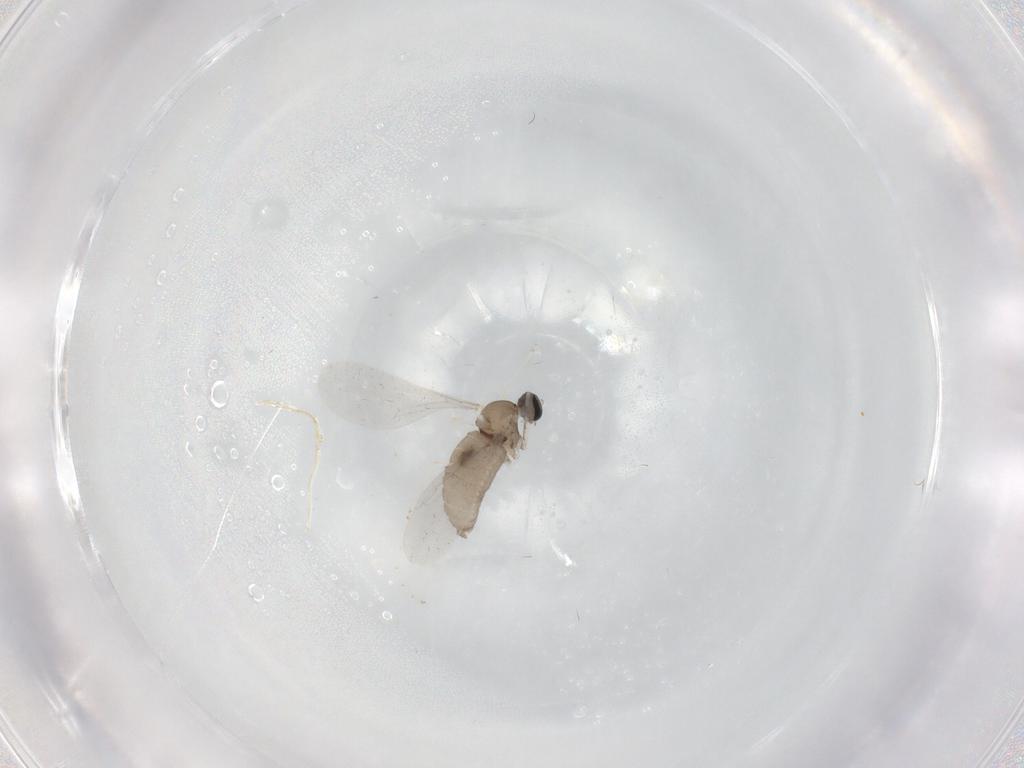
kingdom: Animalia
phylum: Arthropoda
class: Insecta
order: Diptera
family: Cecidomyiidae
